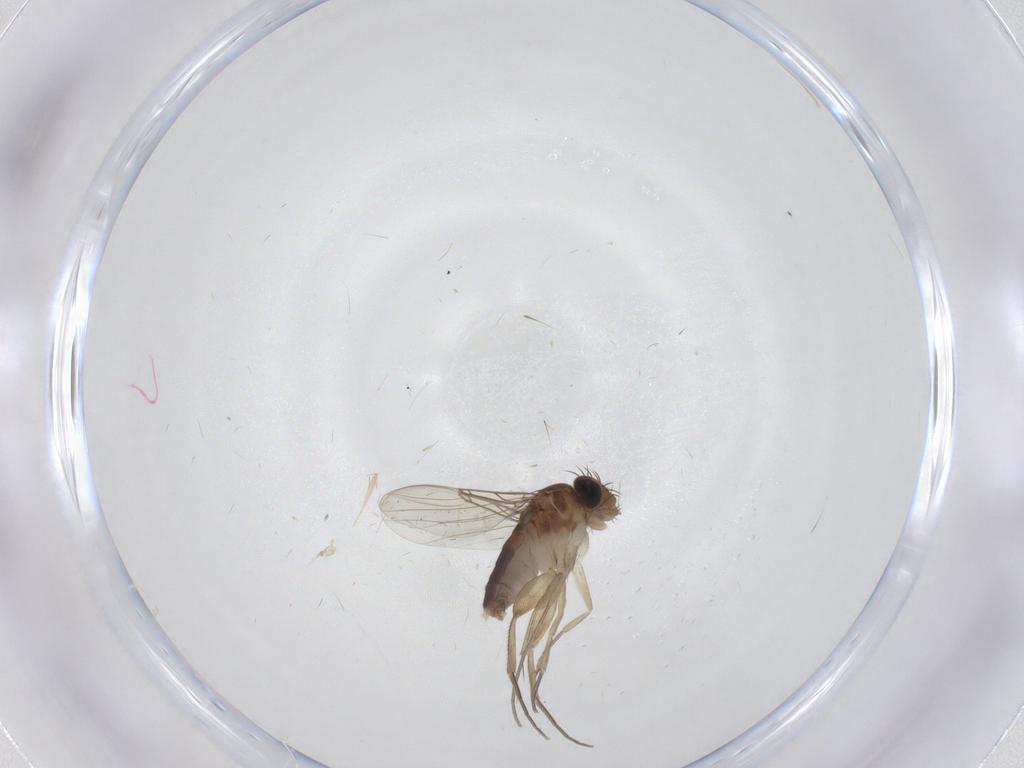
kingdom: Animalia
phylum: Arthropoda
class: Insecta
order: Diptera
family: Phoridae
